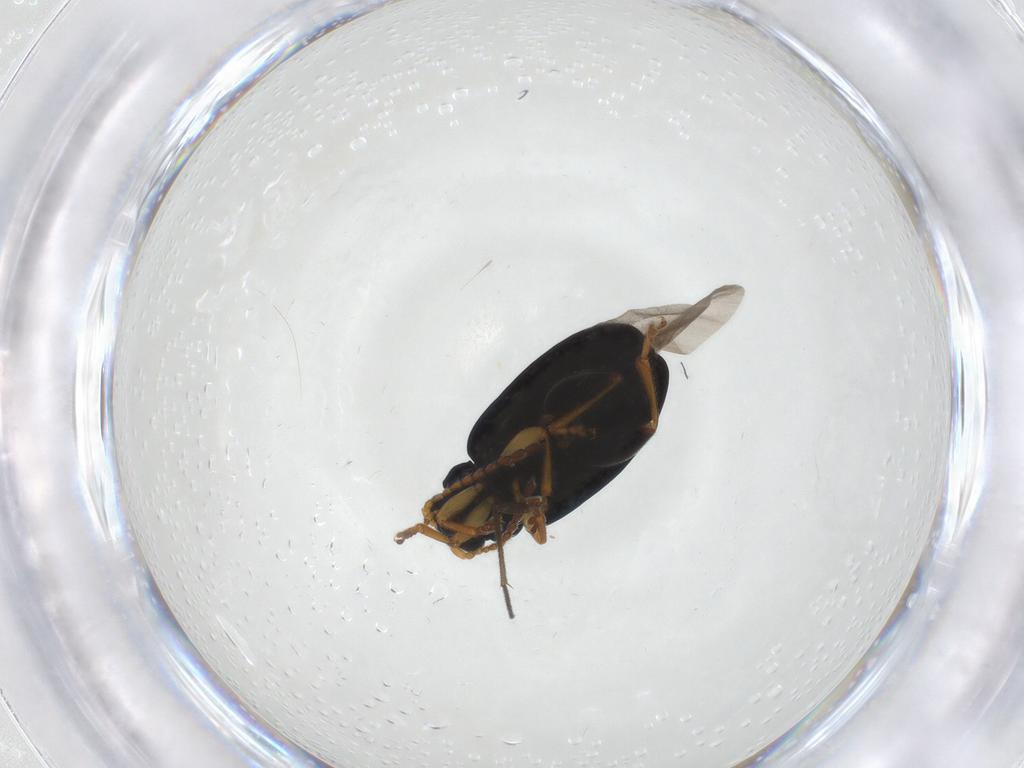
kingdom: Animalia
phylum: Arthropoda
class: Insecta
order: Coleoptera
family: Chrysomelidae
